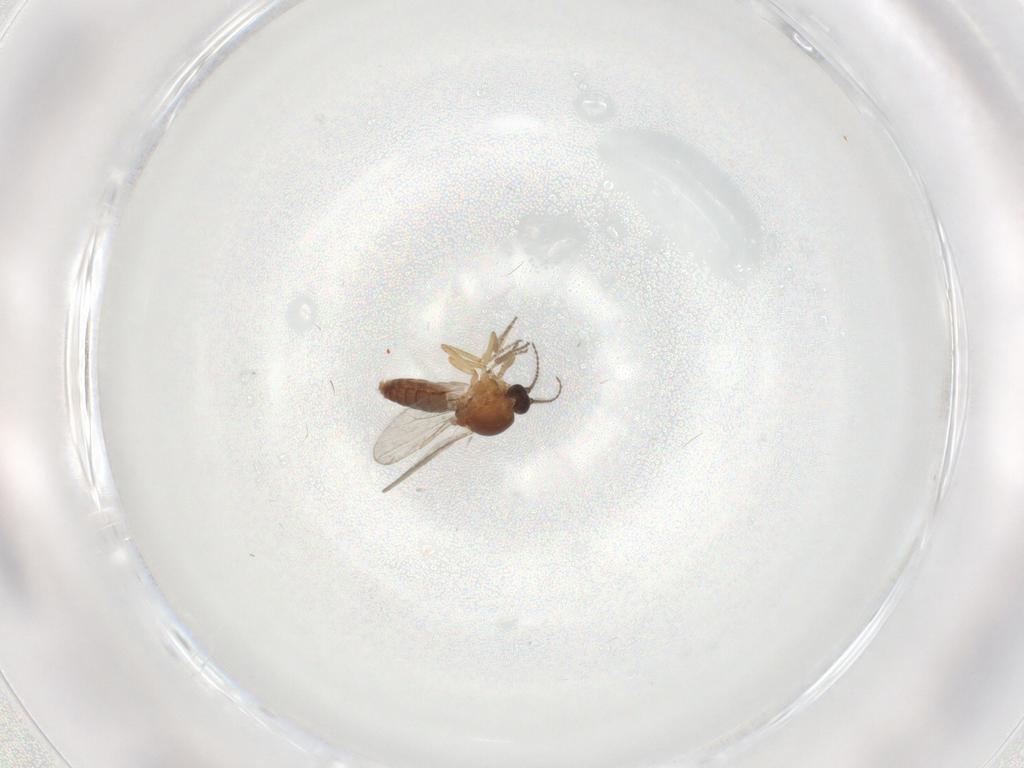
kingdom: Animalia
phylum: Arthropoda
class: Insecta
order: Diptera
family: Ceratopogonidae
